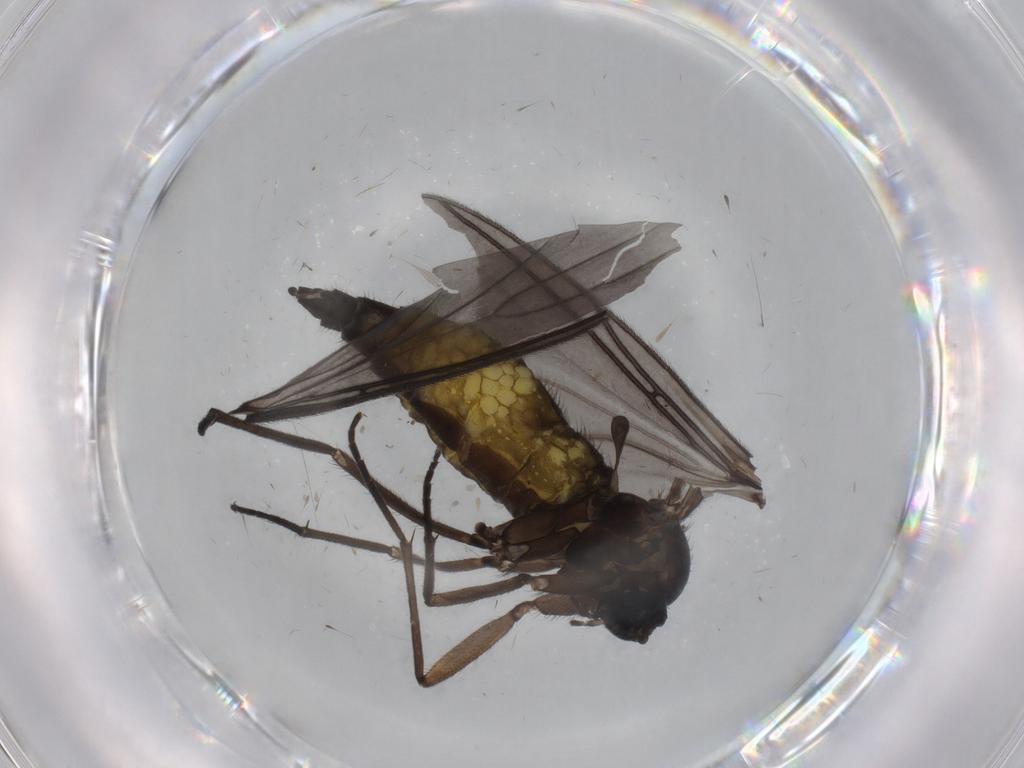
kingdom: Animalia
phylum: Arthropoda
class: Insecta
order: Diptera
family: Sciaridae
